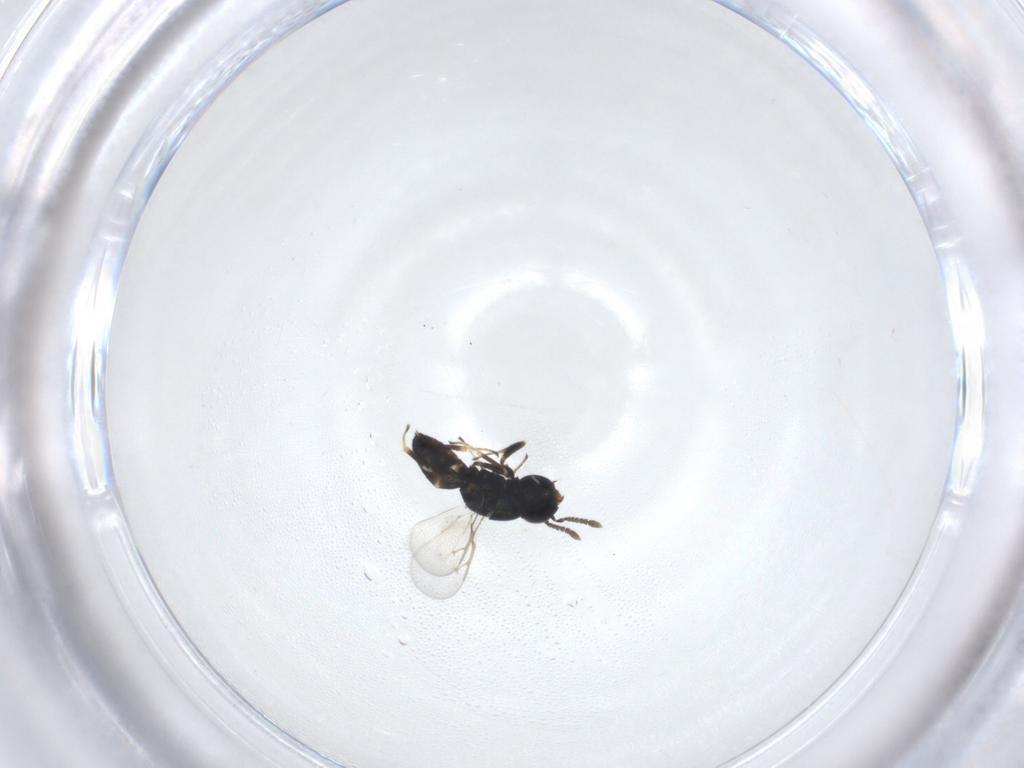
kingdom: Animalia
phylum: Arthropoda
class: Insecta
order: Hymenoptera
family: Pteromalidae
